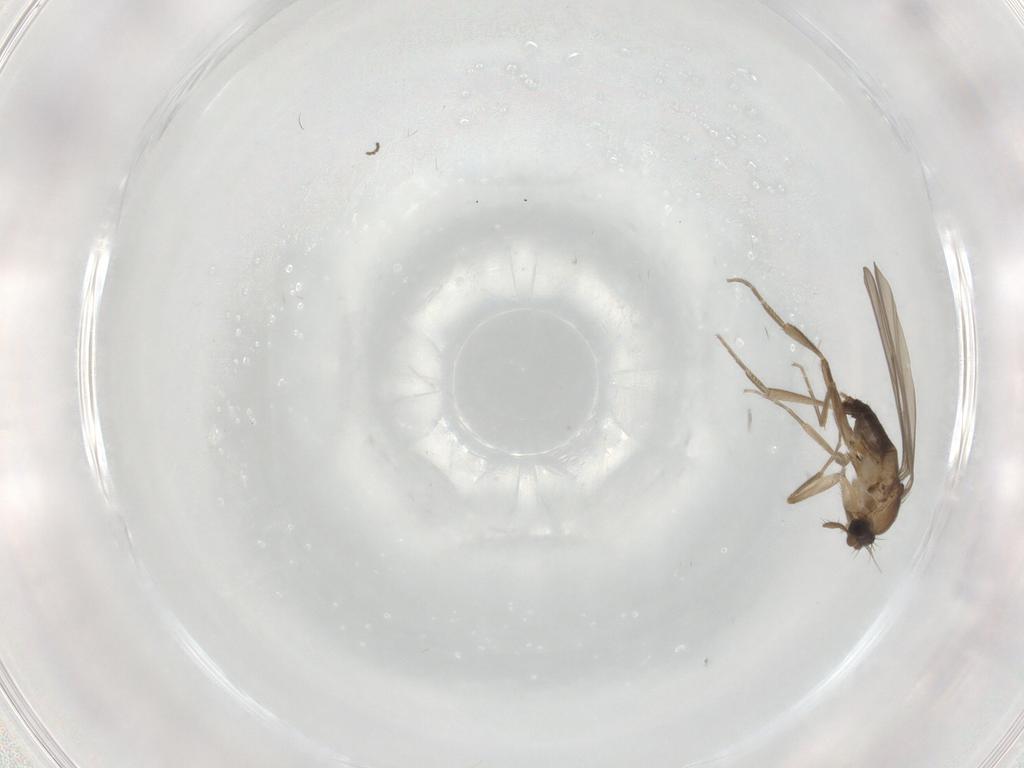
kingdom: Animalia
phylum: Arthropoda
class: Insecta
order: Diptera
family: Phoridae
